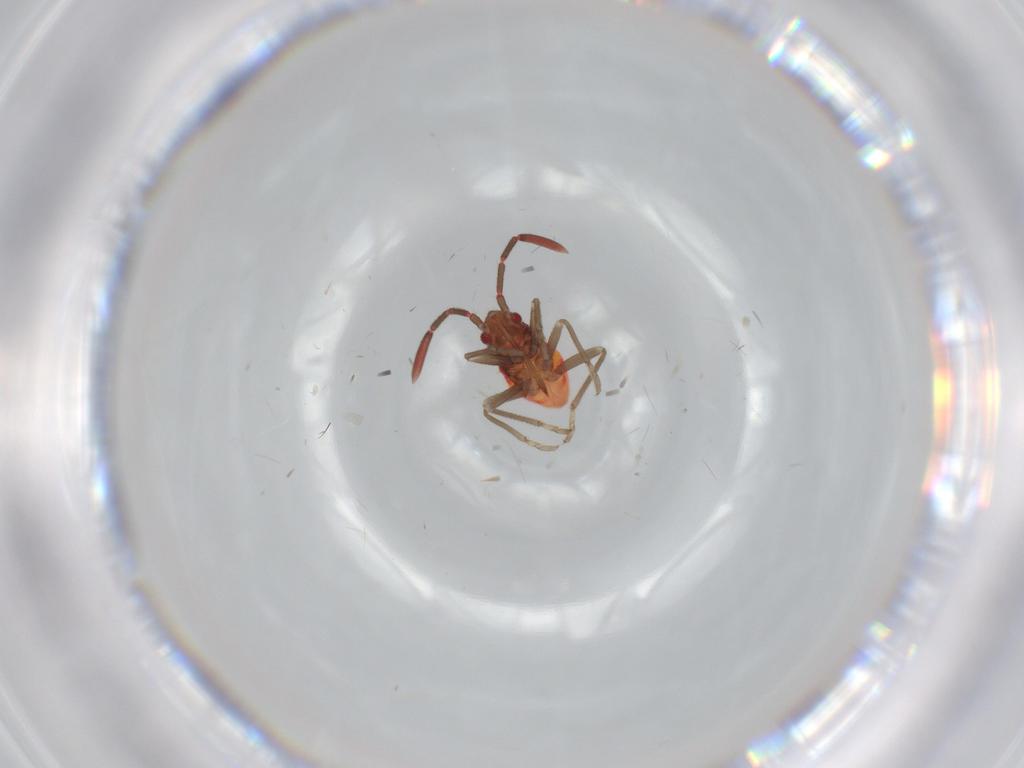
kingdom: Animalia
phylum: Arthropoda
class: Insecta
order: Hemiptera
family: Rhyparochromidae
